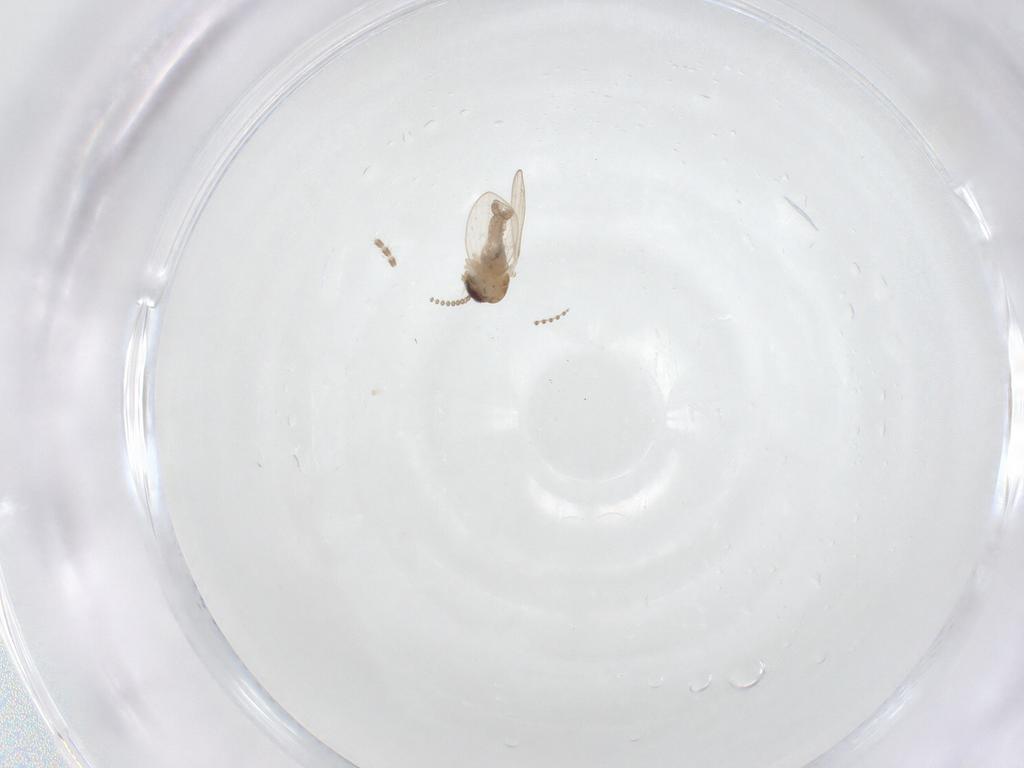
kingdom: Animalia
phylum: Arthropoda
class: Insecta
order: Diptera
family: Psychodidae
